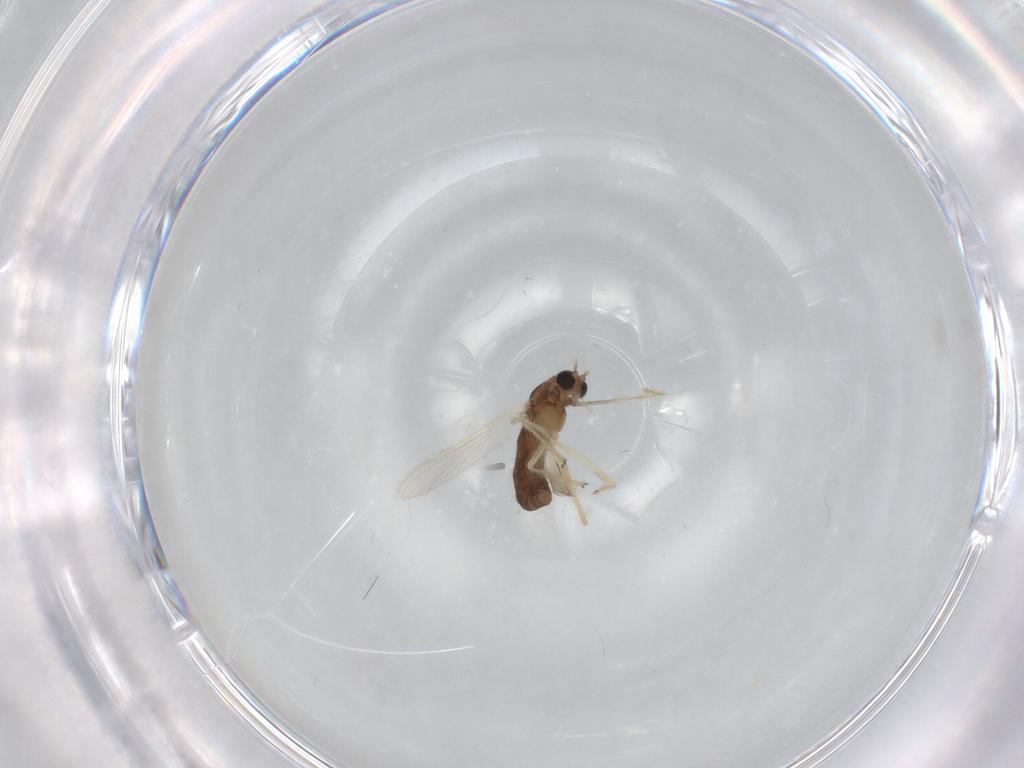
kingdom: Animalia
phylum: Arthropoda
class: Insecta
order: Diptera
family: Chironomidae
